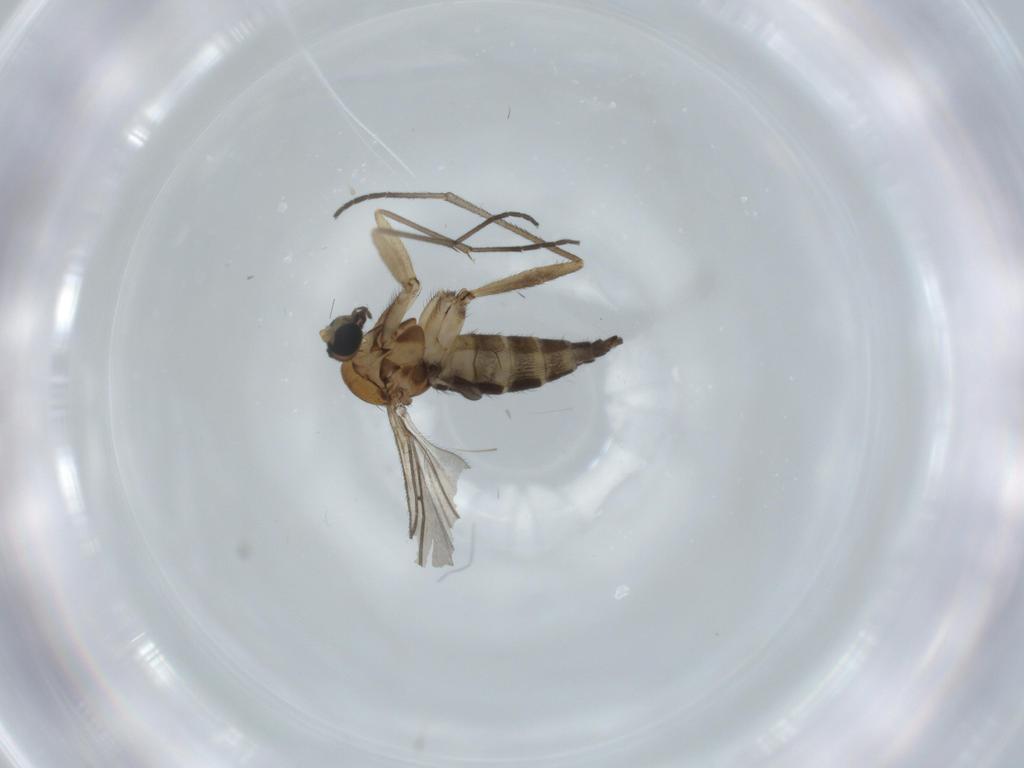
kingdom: Animalia
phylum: Arthropoda
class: Insecta
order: Diptera
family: Sciaridae
